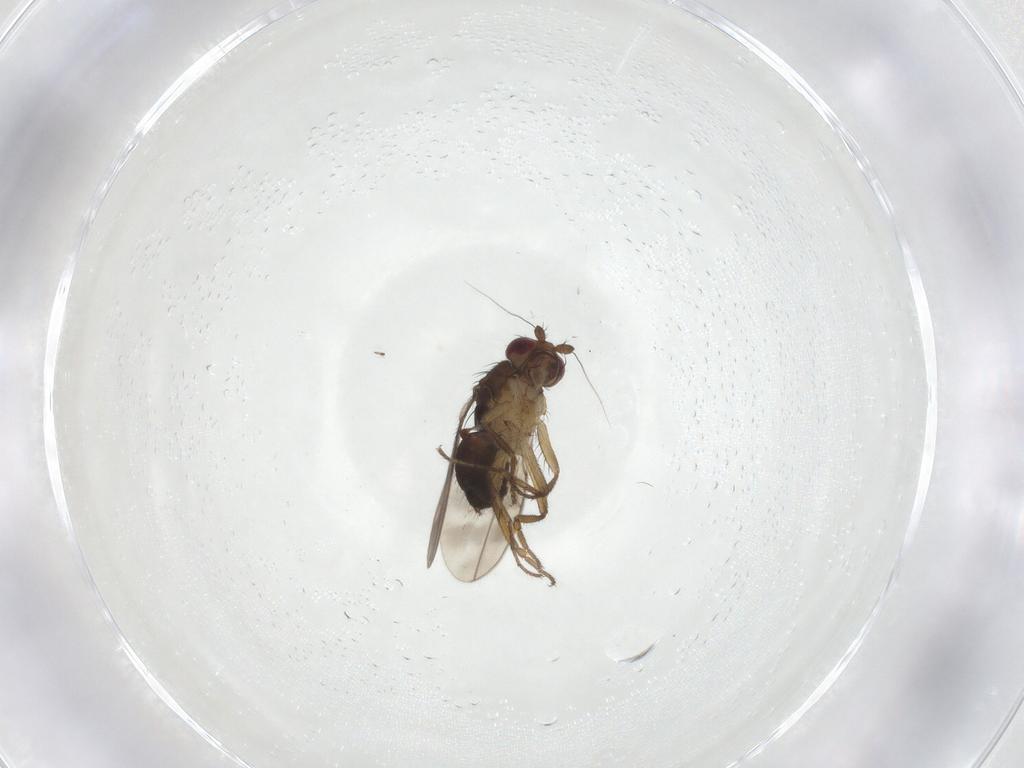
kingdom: Animalia
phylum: Arthropoda
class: Insecta
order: Diptera
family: Sphaeroceridae
